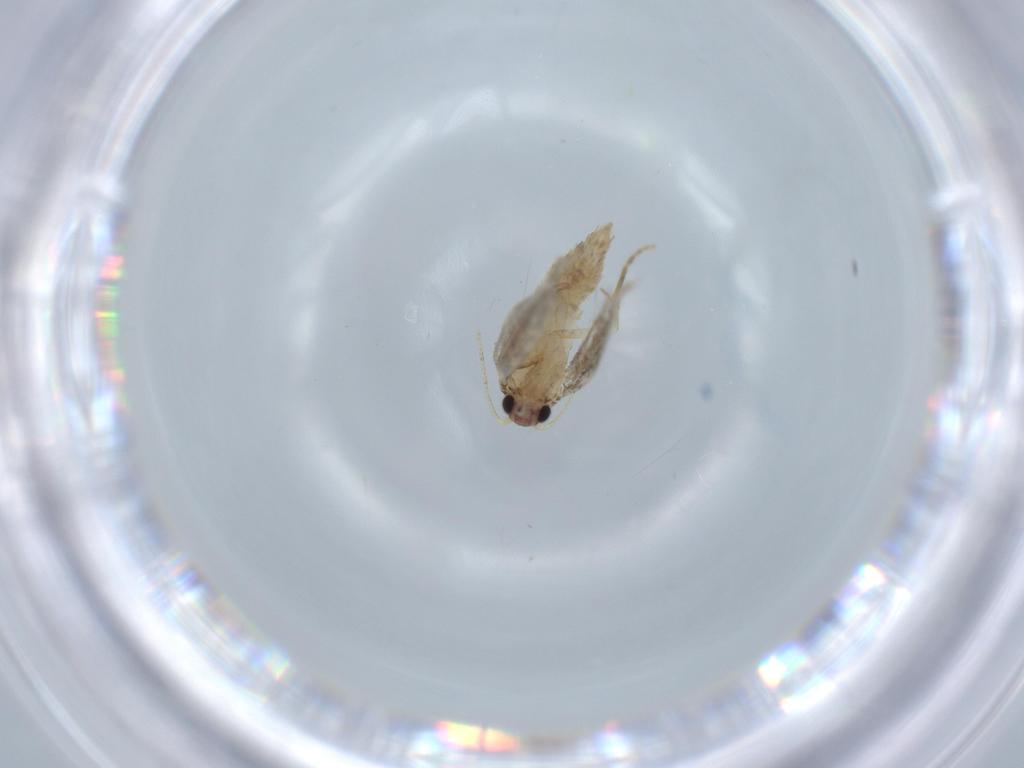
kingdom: Animalia
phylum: Arthropoda
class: Insecta
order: Lepidoptera
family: Tineidae
